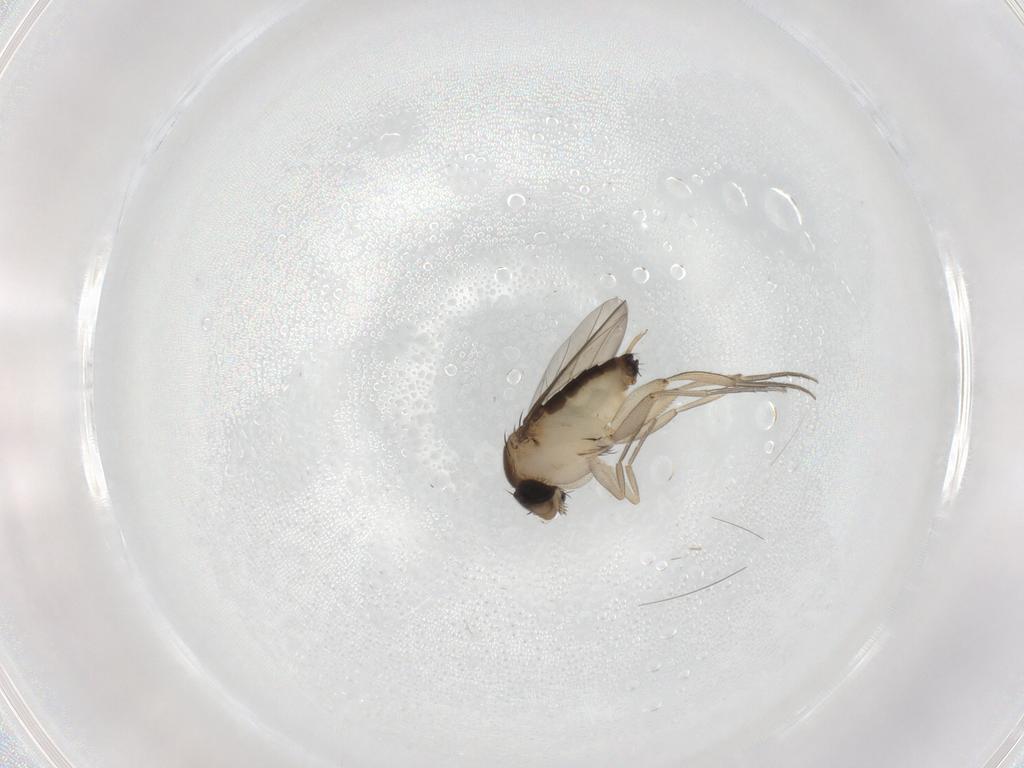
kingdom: Animalia
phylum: Arthropoda
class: Insecta
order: Diptera
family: Phoridae
